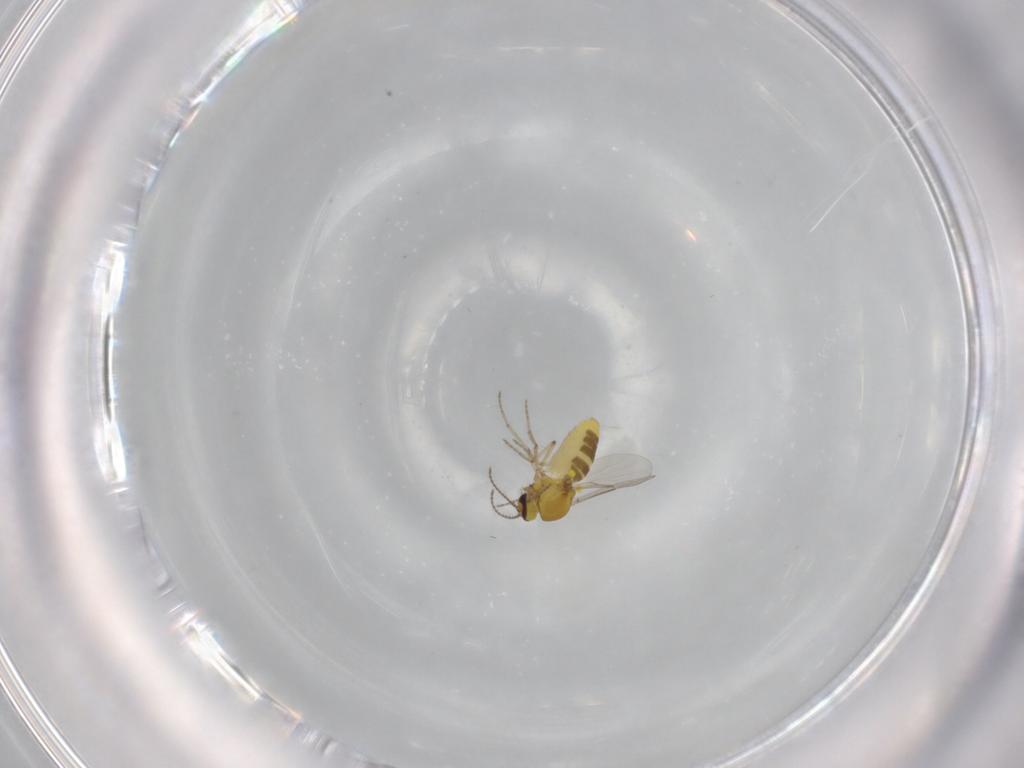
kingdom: Animalia
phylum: Arthropoda
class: Insecta
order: Diptera
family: Ceratopogonidae
